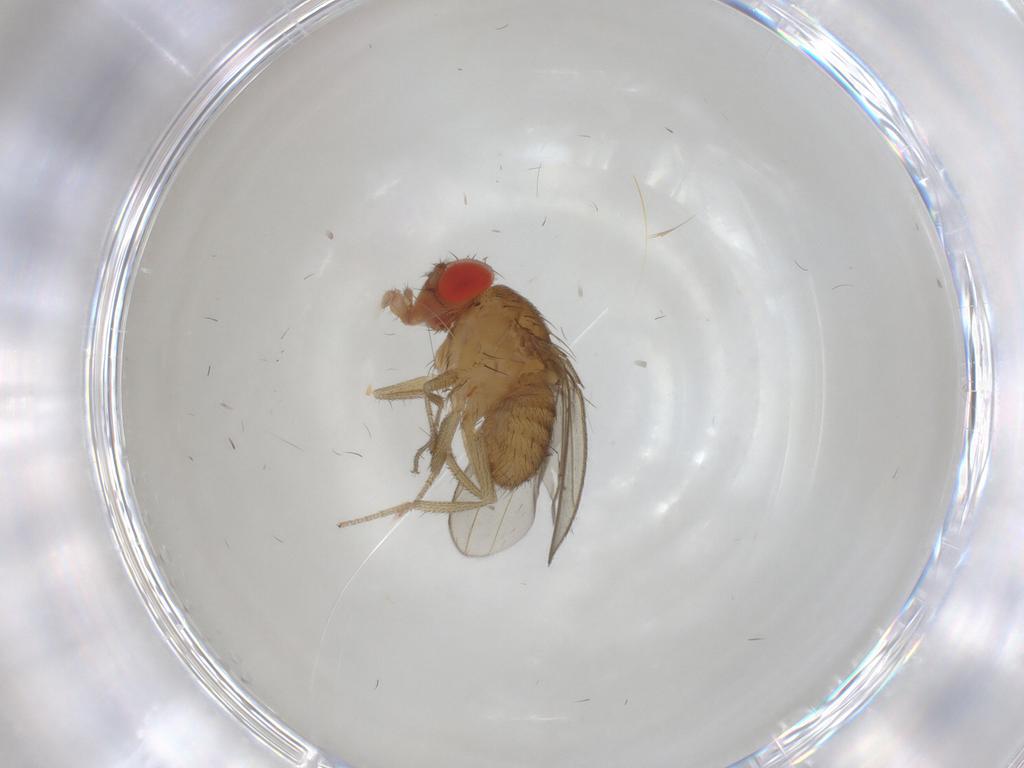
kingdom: Animalia
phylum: Arthropoda
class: Insecta
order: Diptera
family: Drosophilidae
